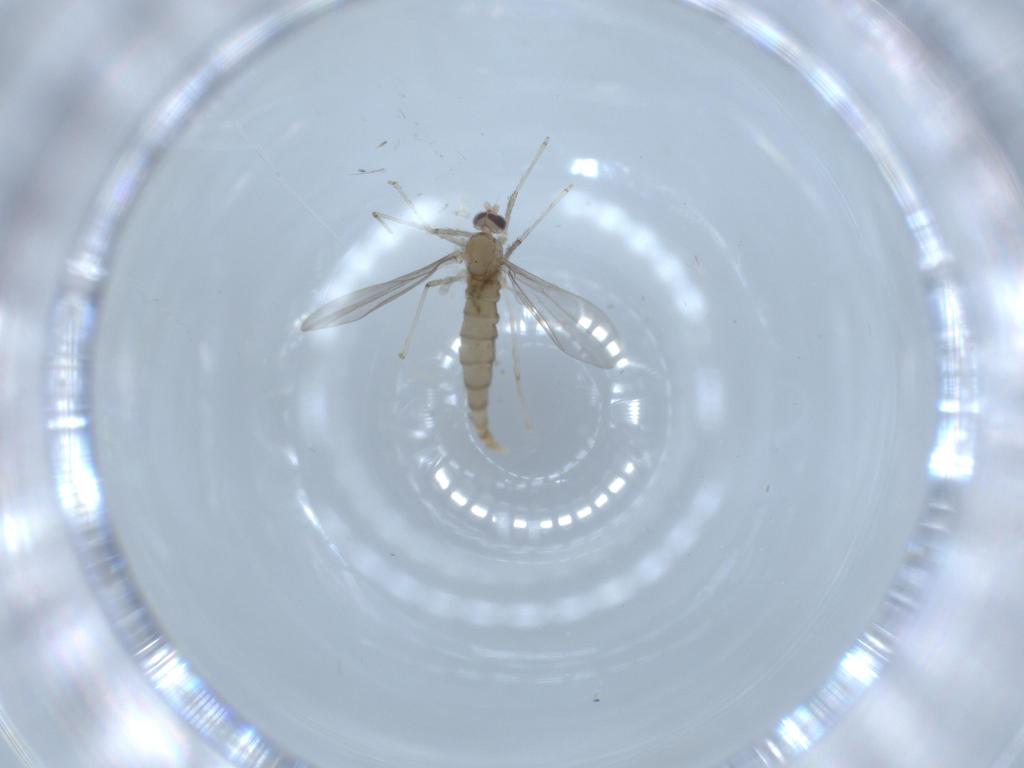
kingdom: Animalia
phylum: Arthropoda
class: Insecta
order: Diptera
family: Cecidomyiidae
